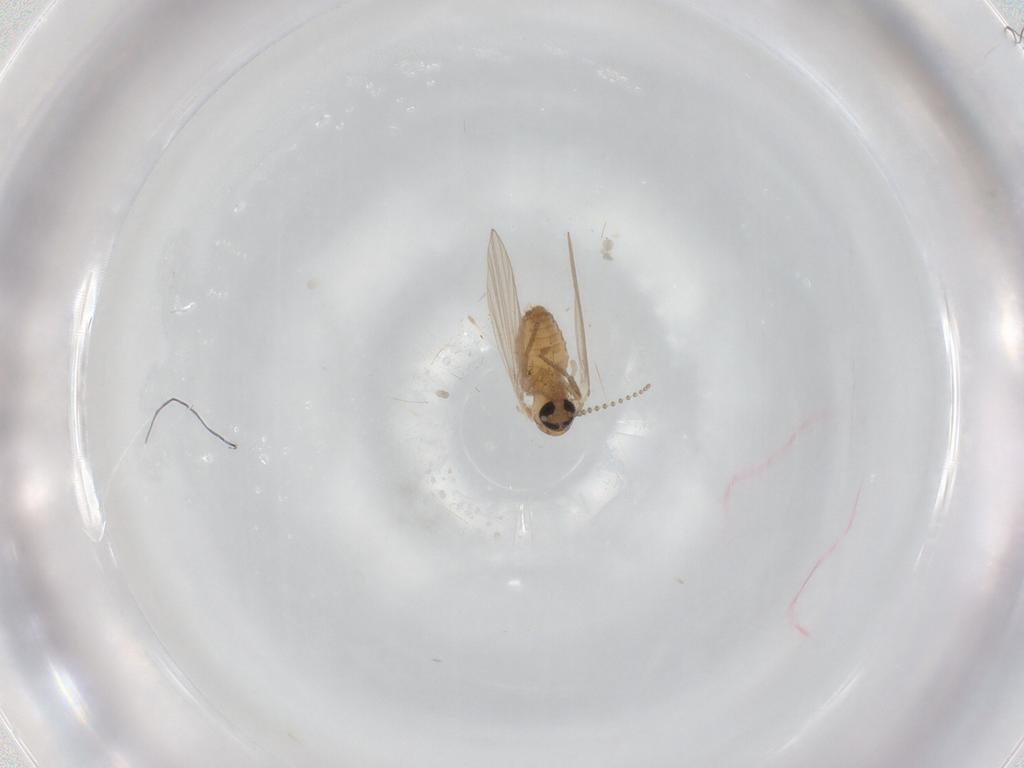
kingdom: Animalia
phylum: Arthropoda
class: Insecta
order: Diptera
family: Psychodidae
